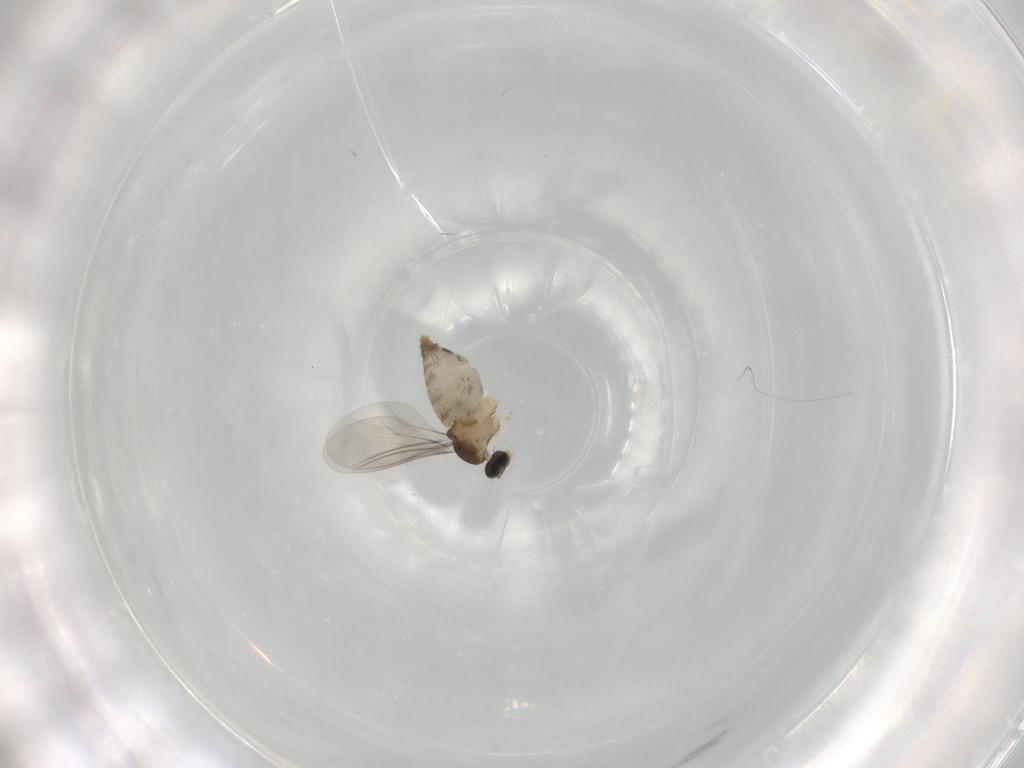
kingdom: Animalia
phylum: Arthropoda
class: Insecta
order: Diptera
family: Cecidomyiidae
